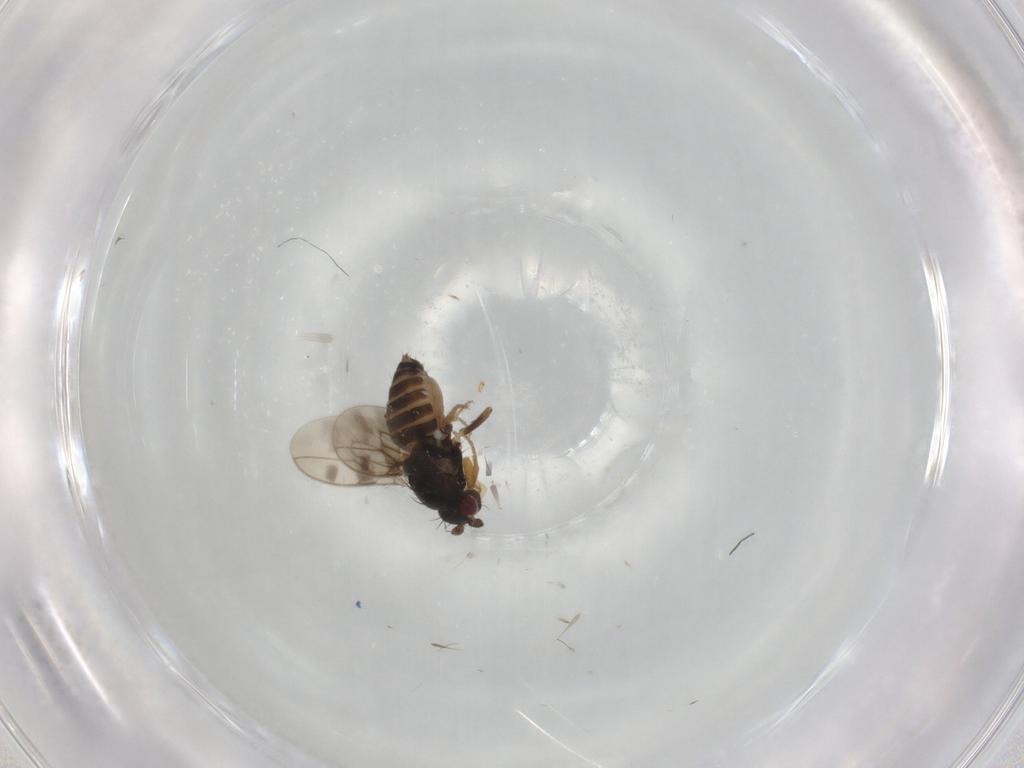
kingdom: Animalia
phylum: Arthropoda
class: Insecta
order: Diptera
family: Sphaeroceridae
